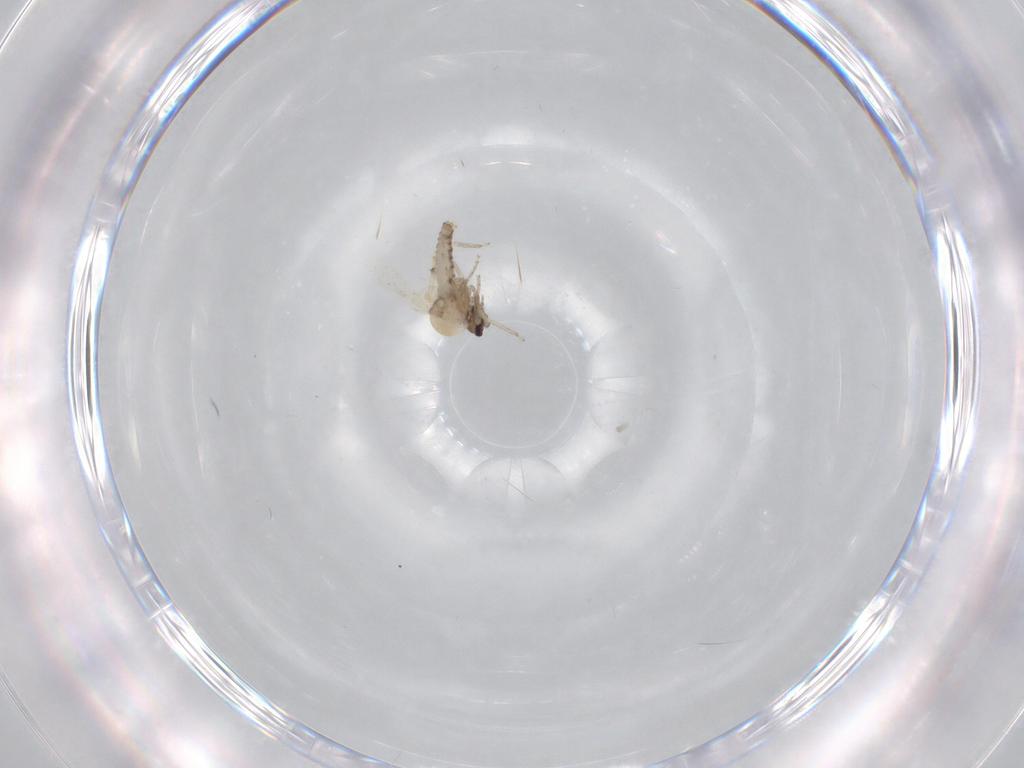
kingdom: Animalia
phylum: Arthropoda
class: Insecta
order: Diptera
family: Ceratopogonidae
